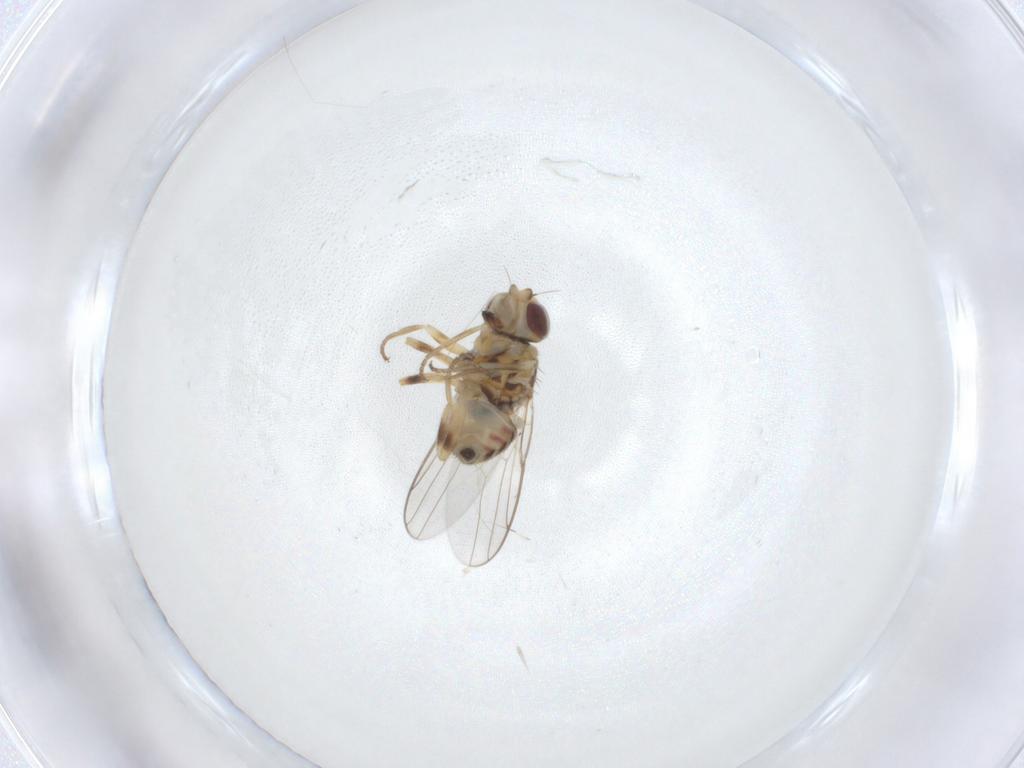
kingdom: Animalia
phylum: Arthropoda
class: Insecta
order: Diptera
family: Chloropidae
